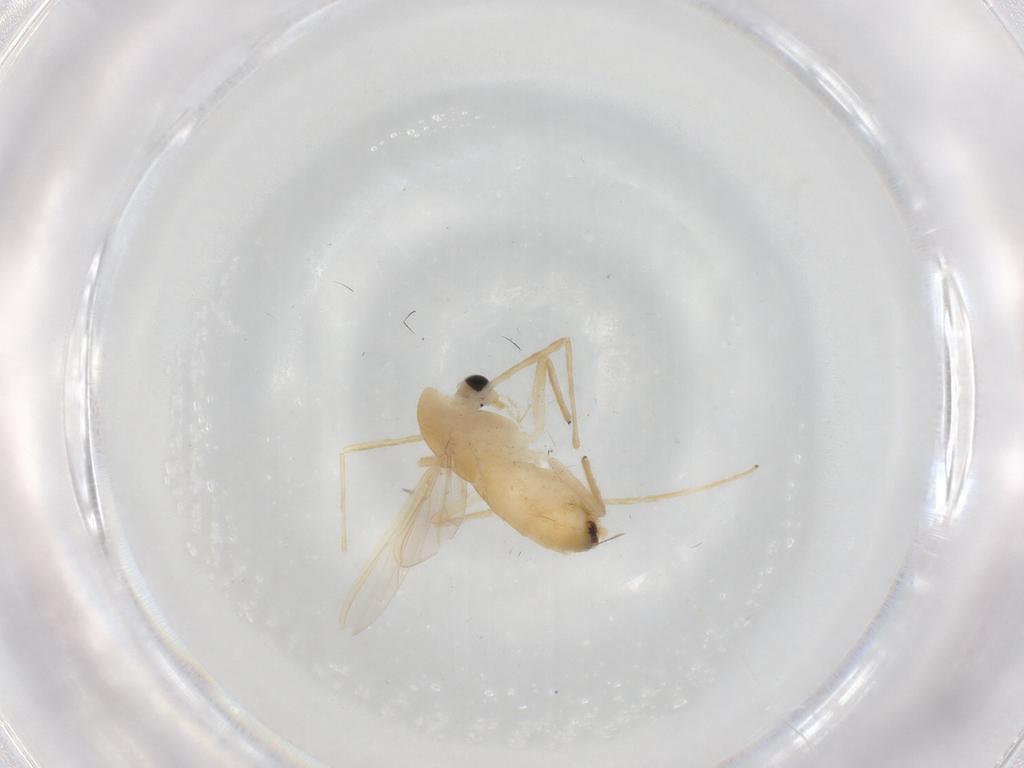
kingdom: Animalia
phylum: Arthropoda
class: Insecta
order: Diptera
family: Chironomidae
